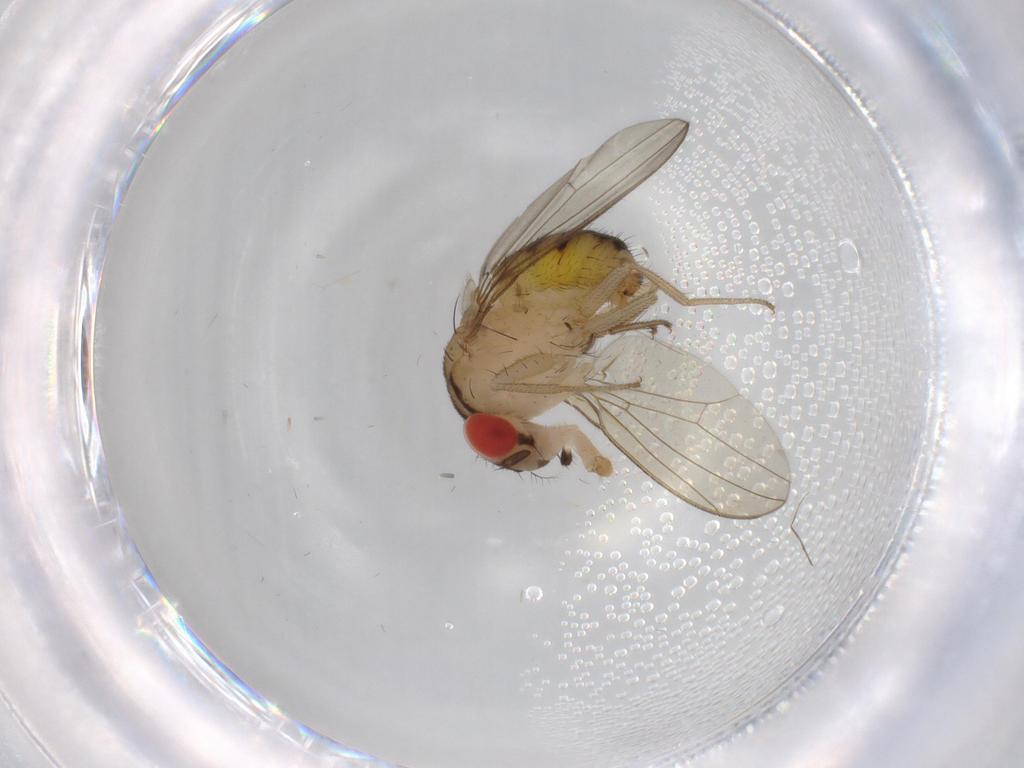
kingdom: Animalia
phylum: Arthropoda
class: Insecta
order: Diptera
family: Drosophilidae
